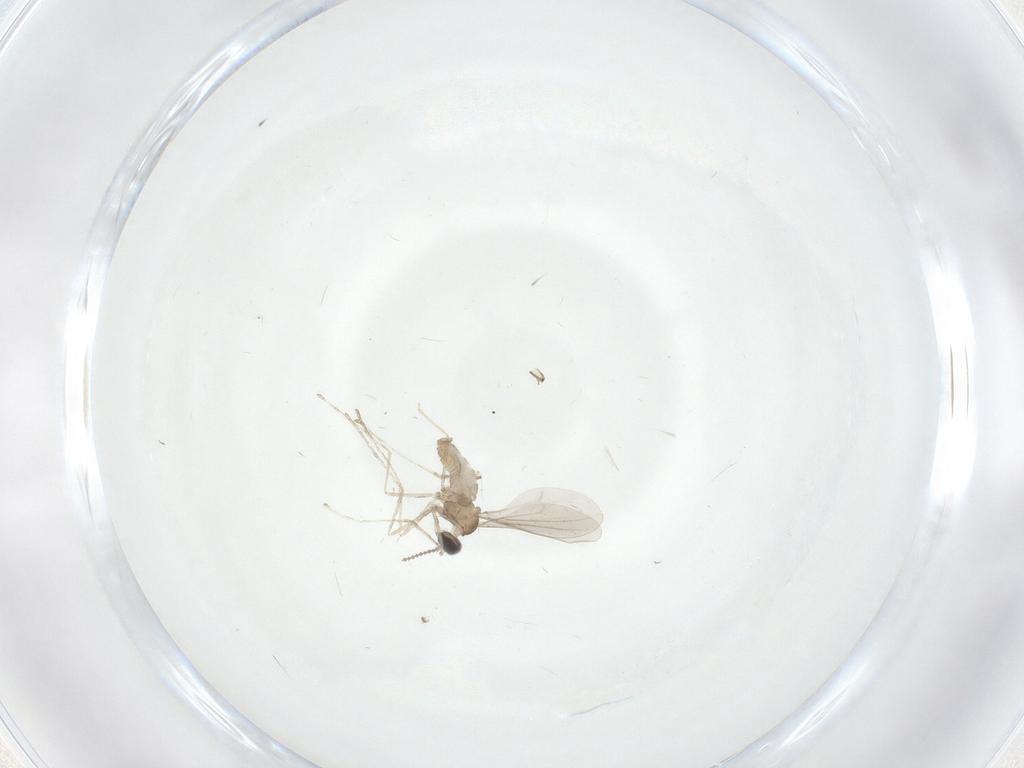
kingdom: Animalia
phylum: Arthropoda
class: Insecta
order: Diptera
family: Cecidomyiidae
